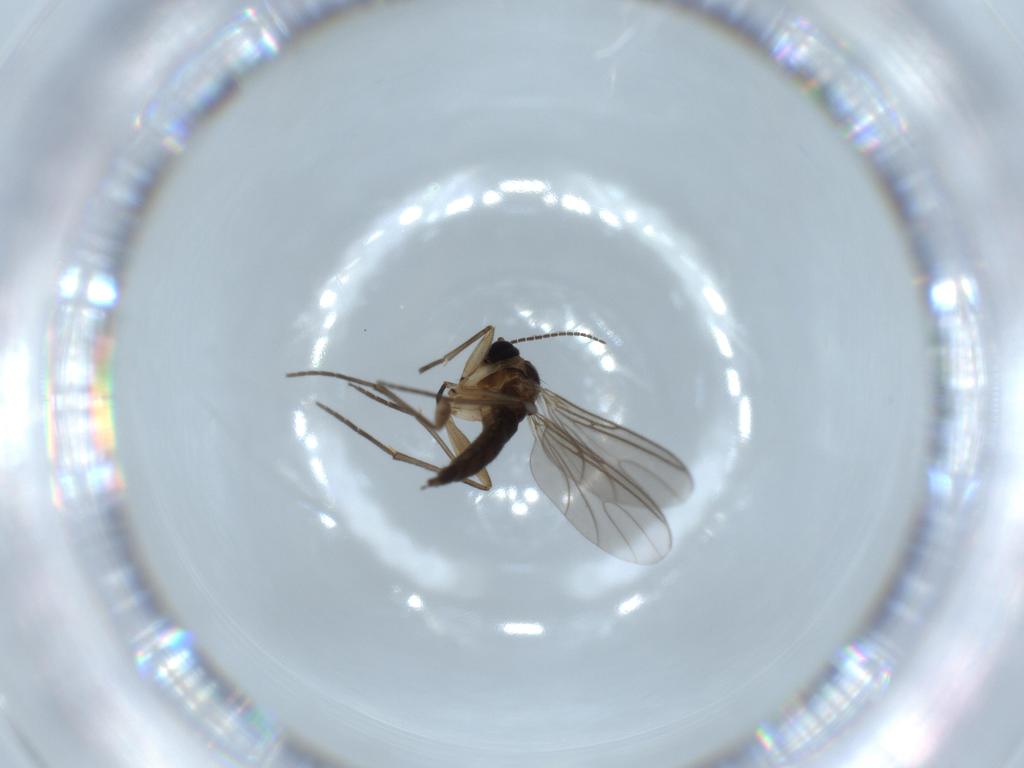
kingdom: Animalia
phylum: Arthropoda
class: Insecta
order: Diptera
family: Sciaridae
